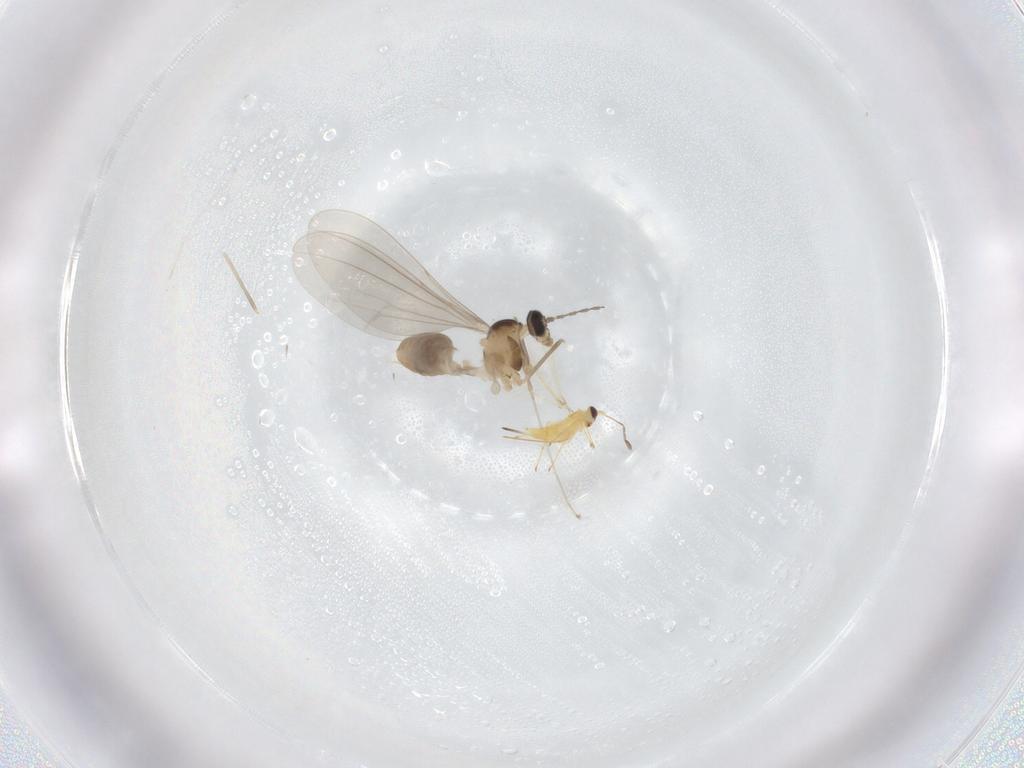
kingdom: Animalia
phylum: Arthropoda
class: Insecta
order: Diptera
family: Cecidomyiidae
